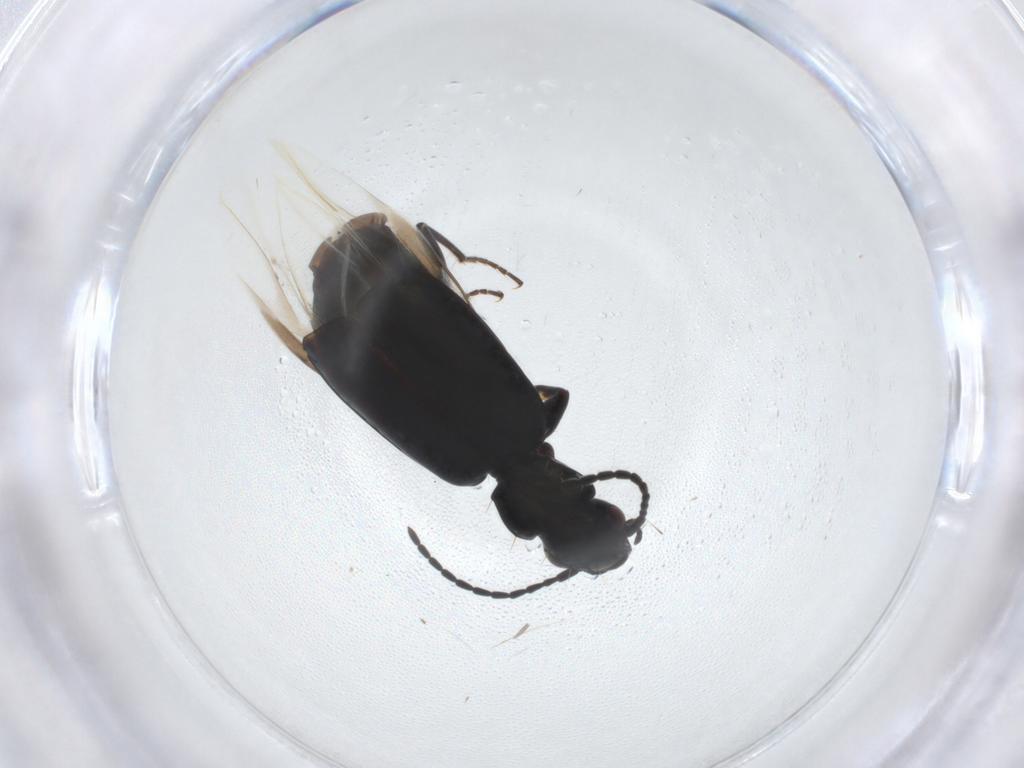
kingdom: Animalia
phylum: Arthropoda
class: Insecta
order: Coleoptera
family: Carabidae
